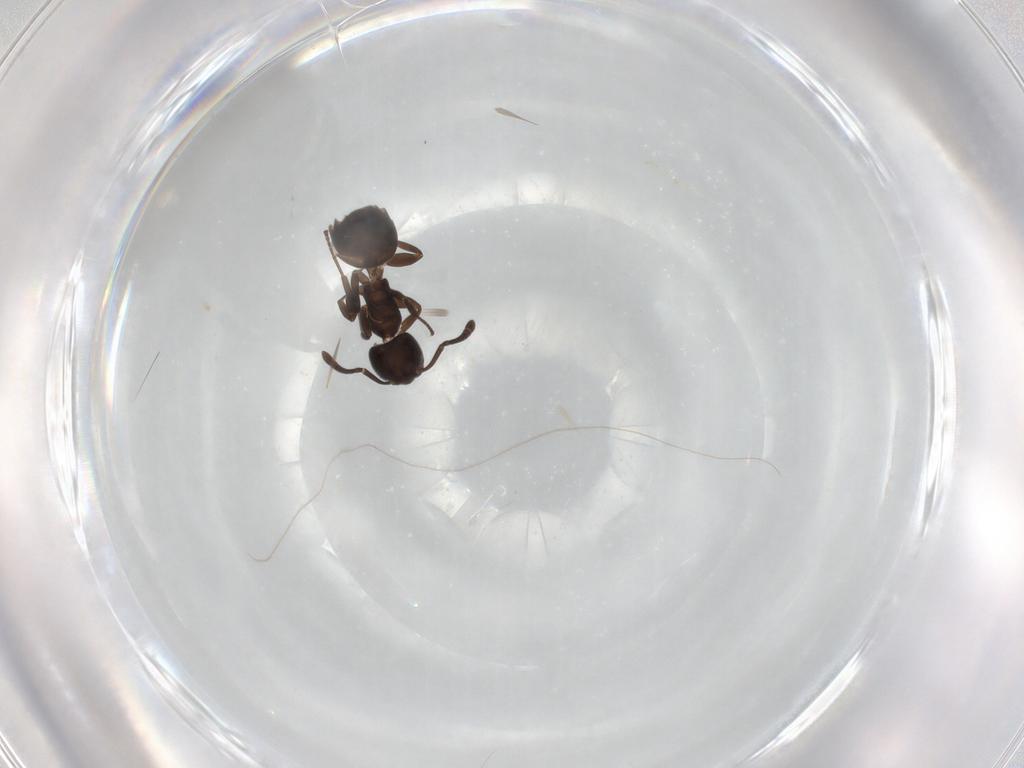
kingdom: Animalia
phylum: Arthropoda
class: Insecta
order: Hymenoptera
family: Formicidae
